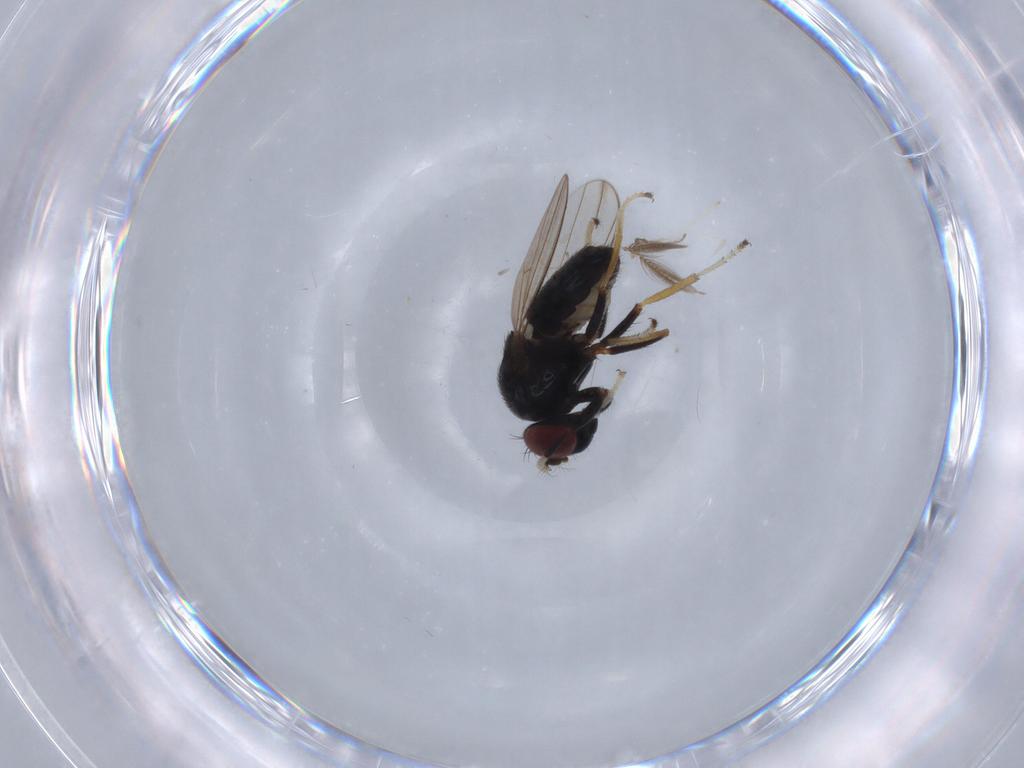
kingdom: Animalia
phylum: Arthropoda
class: Insecta
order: Diptera
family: Ephydridae
